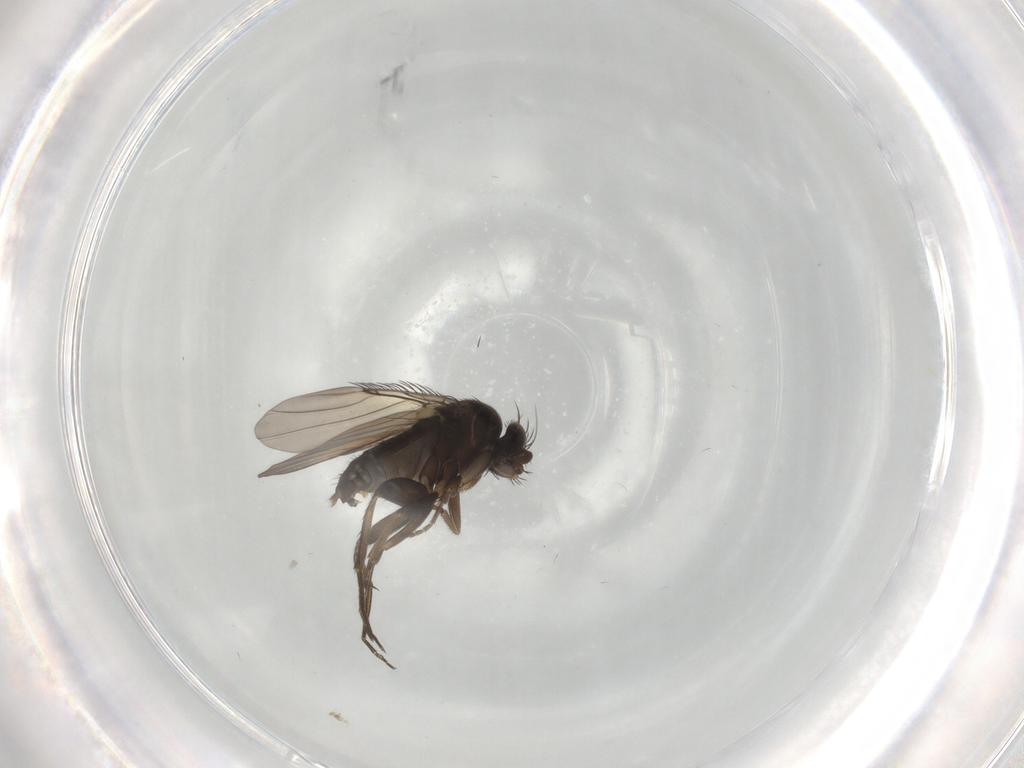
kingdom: Animalia
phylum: Arthropoda
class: Insecta
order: Diptera
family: Phoridae
